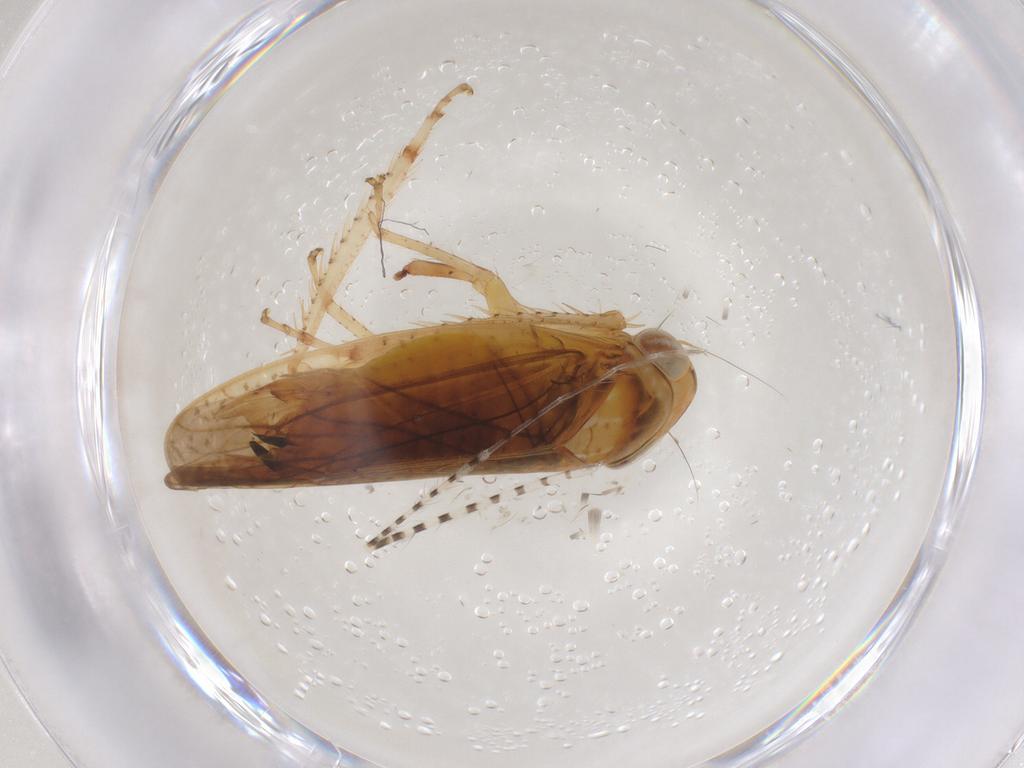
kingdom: Animalia
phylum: Arthropoda
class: Insecta
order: Hemiptera
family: Cicadellidae
